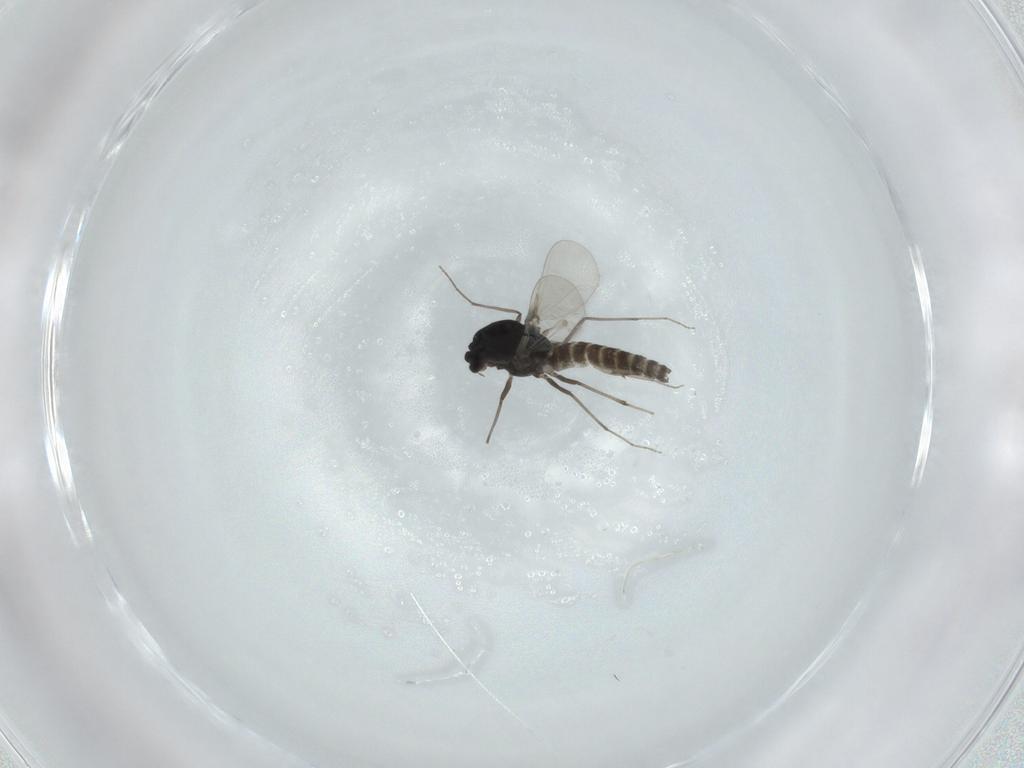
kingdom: Animalia
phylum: Arthropoda
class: Insecta
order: Diptera
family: Chironomidae
